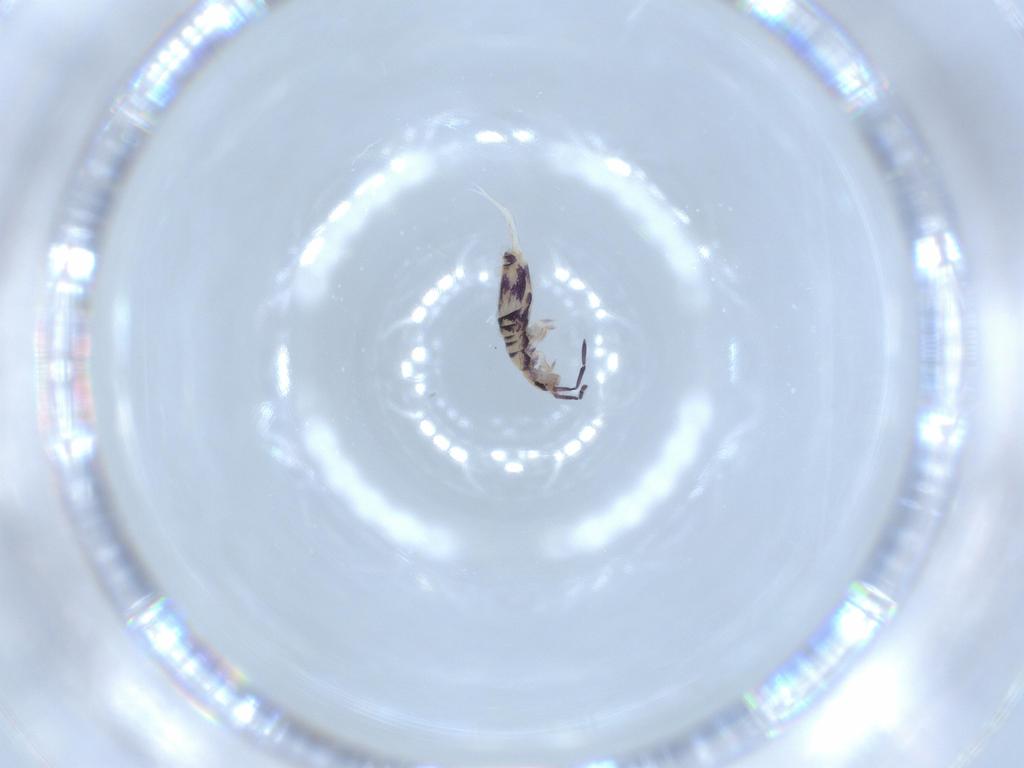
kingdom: Animalia
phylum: Arthropoda
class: Collembola
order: Entomobryomorpha
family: Entomobryidae
